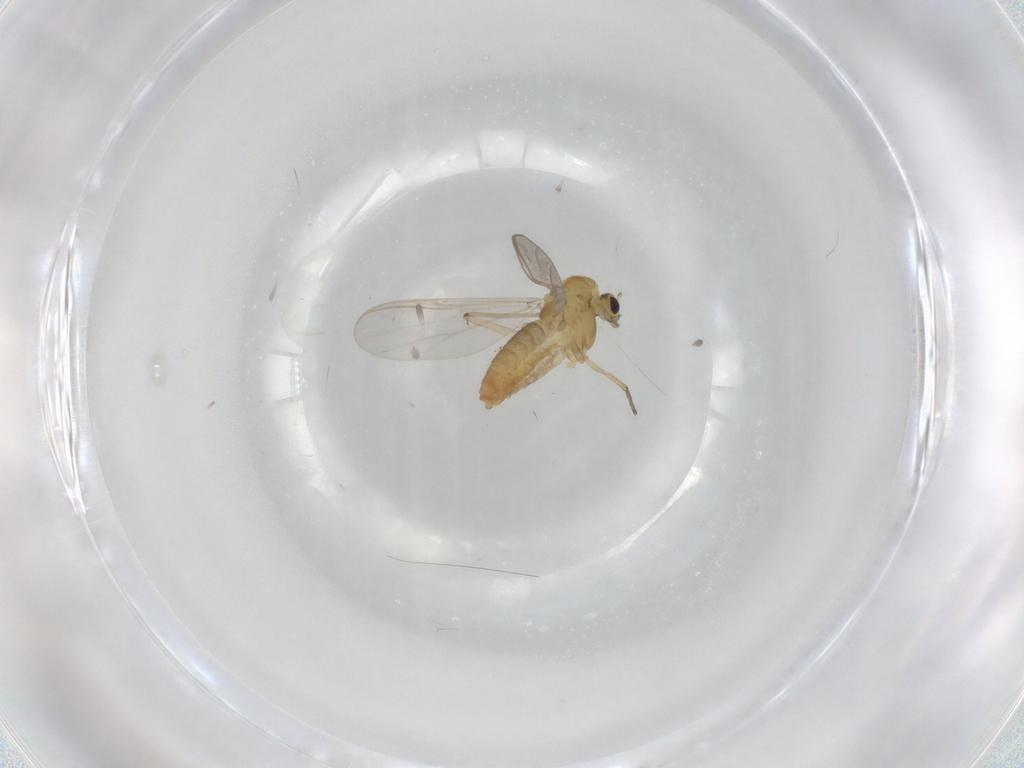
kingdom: Animalia
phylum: Arthropoda
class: Insecta
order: Diptera
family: Chironomidae
